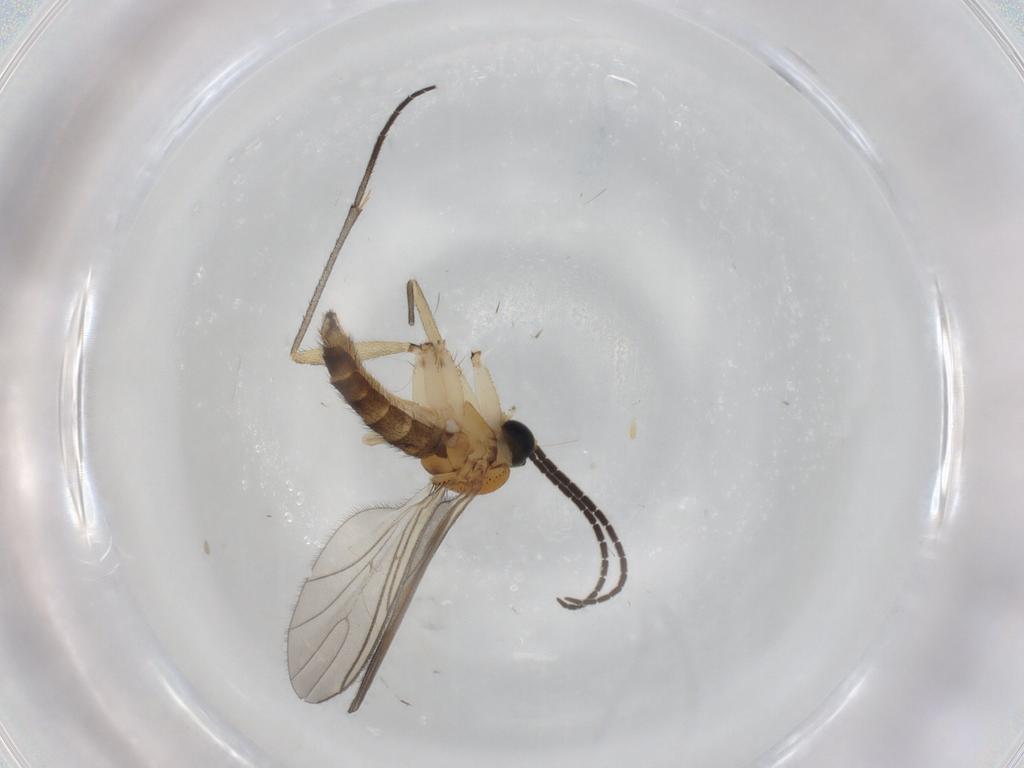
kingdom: Animalia
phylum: Arthropoda
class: Insecta
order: Diptera
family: Sciaridae
